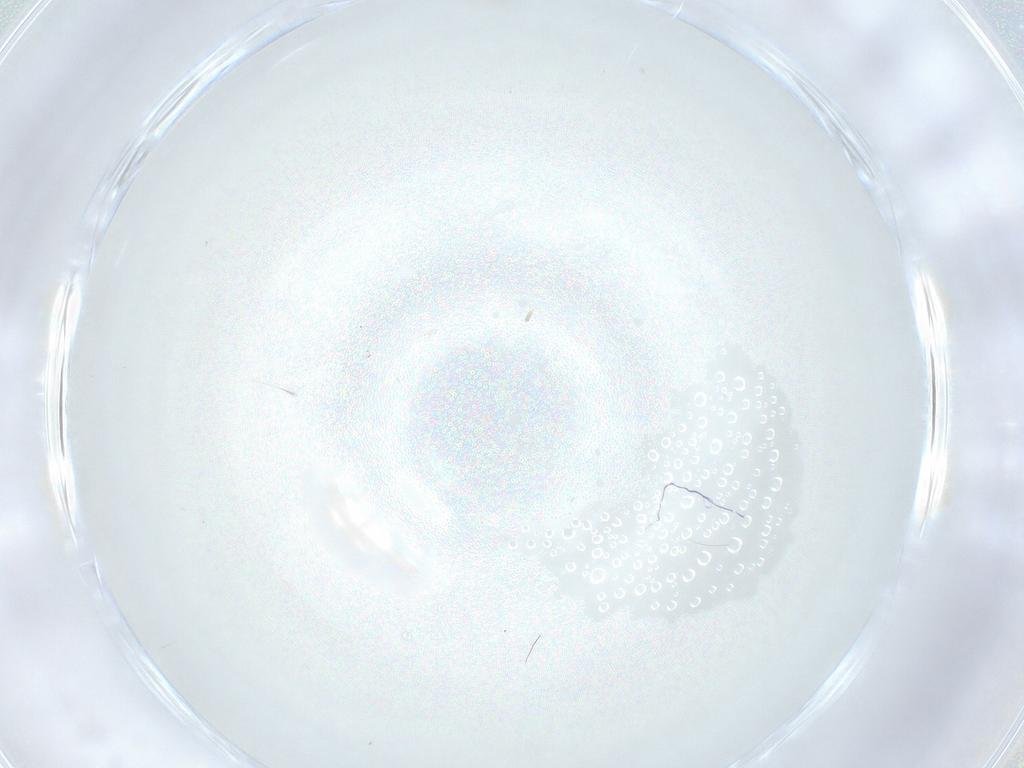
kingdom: Animalia
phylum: Arthropoda
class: Insecta
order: Diptera
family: Cecidomyiidae
